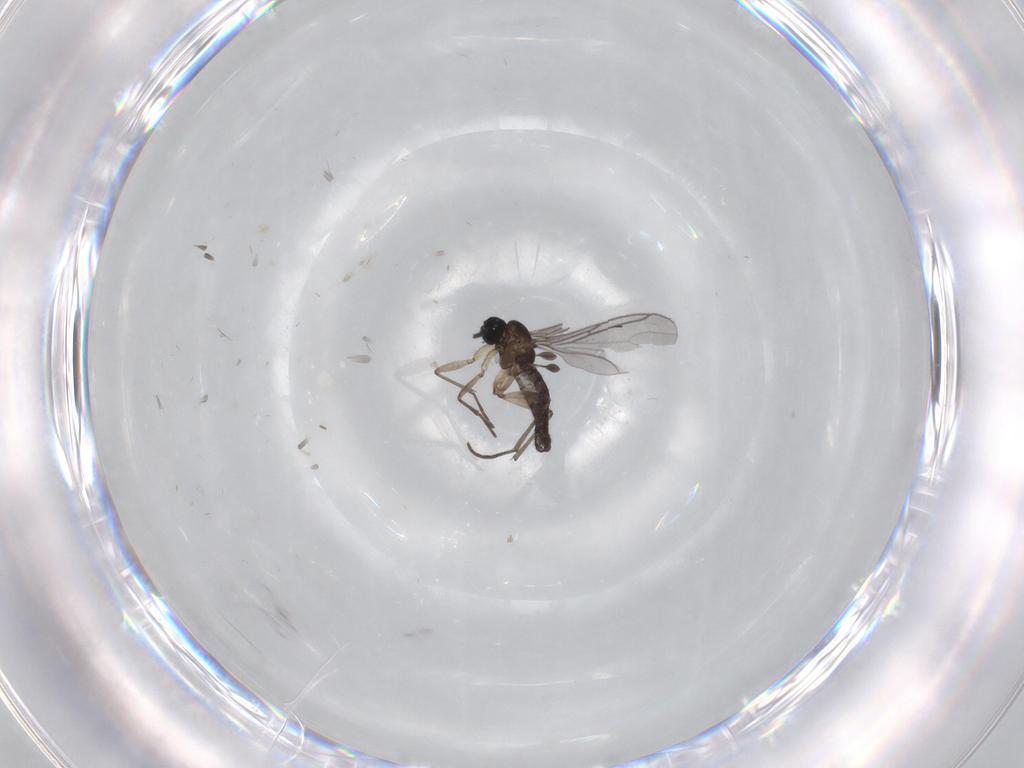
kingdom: Animalia
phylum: Arthropoda
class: Insecta
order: Diptera
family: Sciaridae
